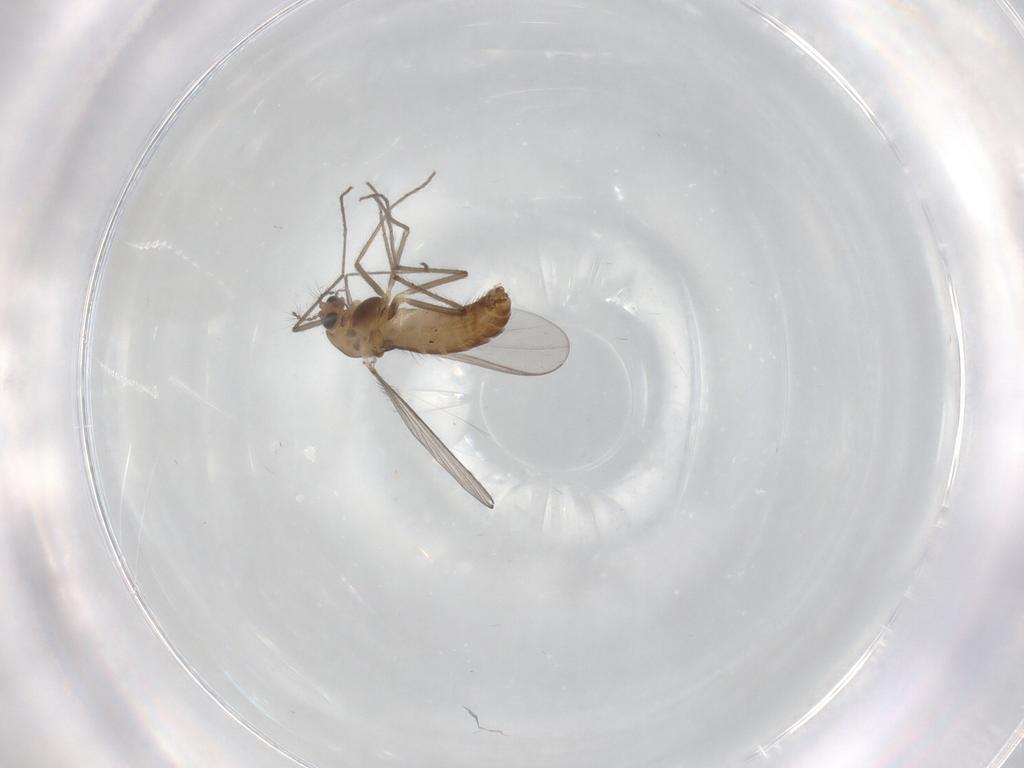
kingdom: Animalia
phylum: Arthropoda
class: Insecta
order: Diptera
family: Chironomidae
